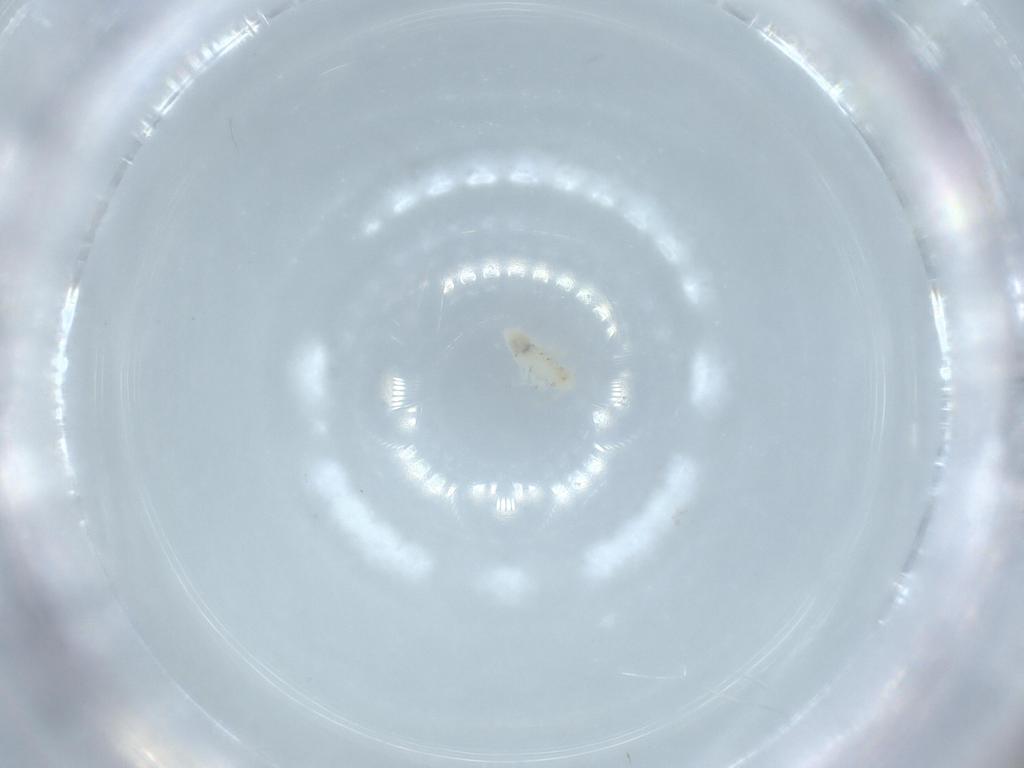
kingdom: Animalia
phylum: Arthropoda
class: Insecta
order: Psocodea
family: Caeciliusidae
